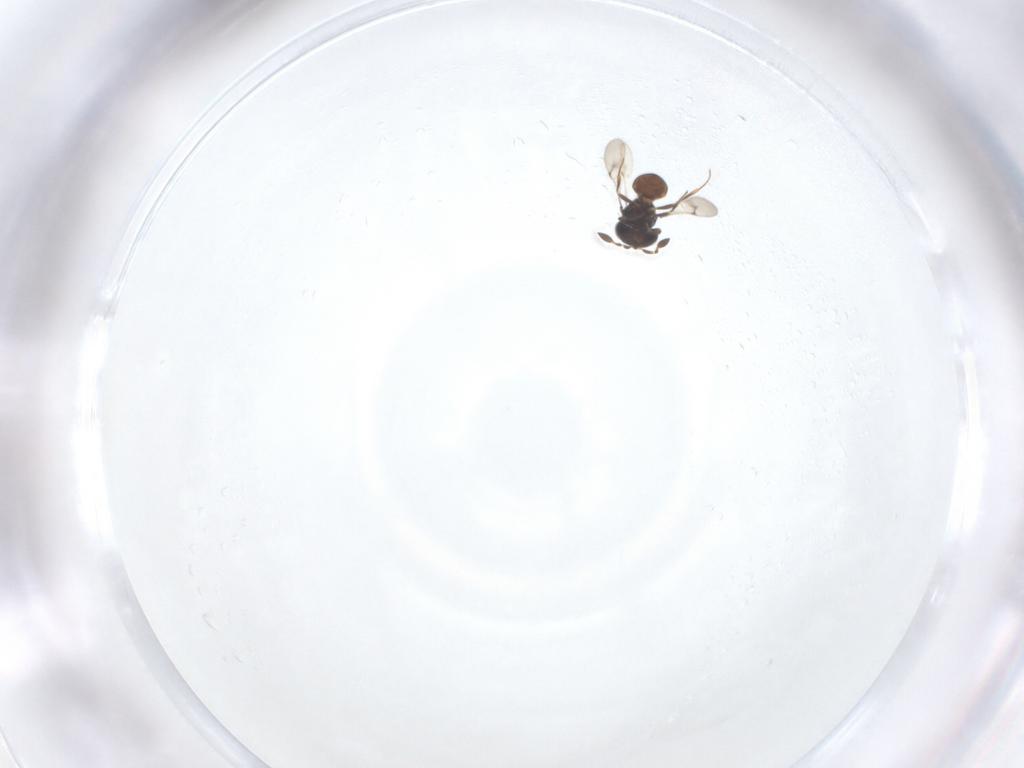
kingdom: Animalia
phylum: Arthropoda
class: Arachnida
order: Araneae
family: Pholcidae
